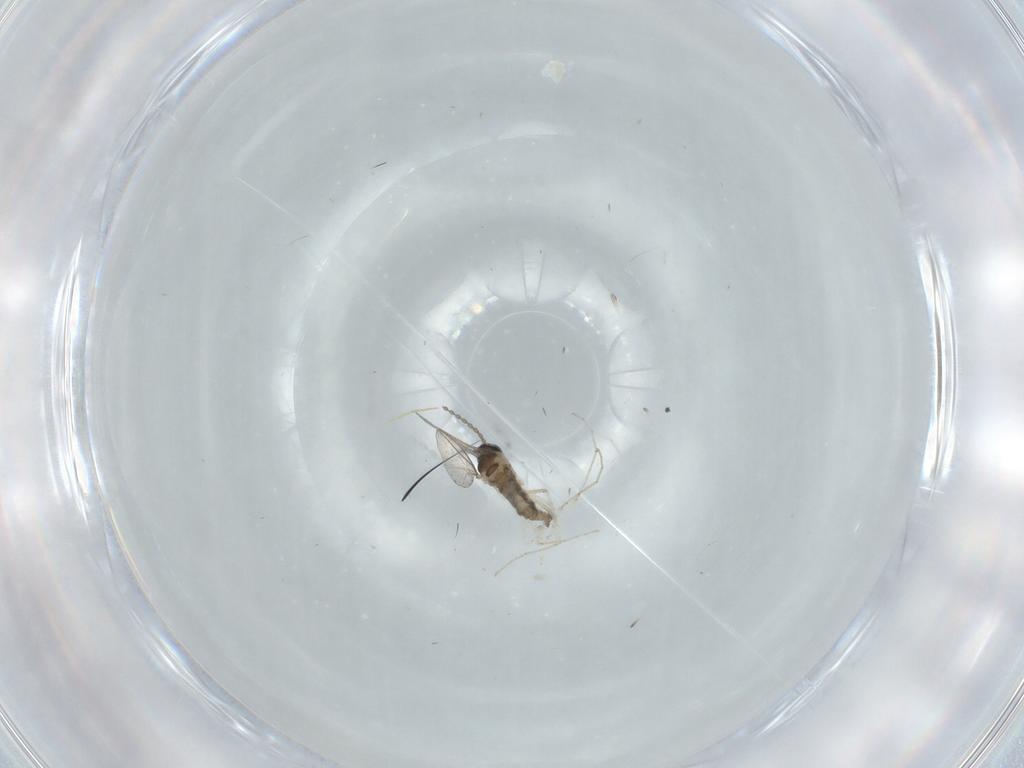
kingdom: Animalia
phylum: Arthropoda
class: Insecta
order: Diptera
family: Cecidomyiidae
